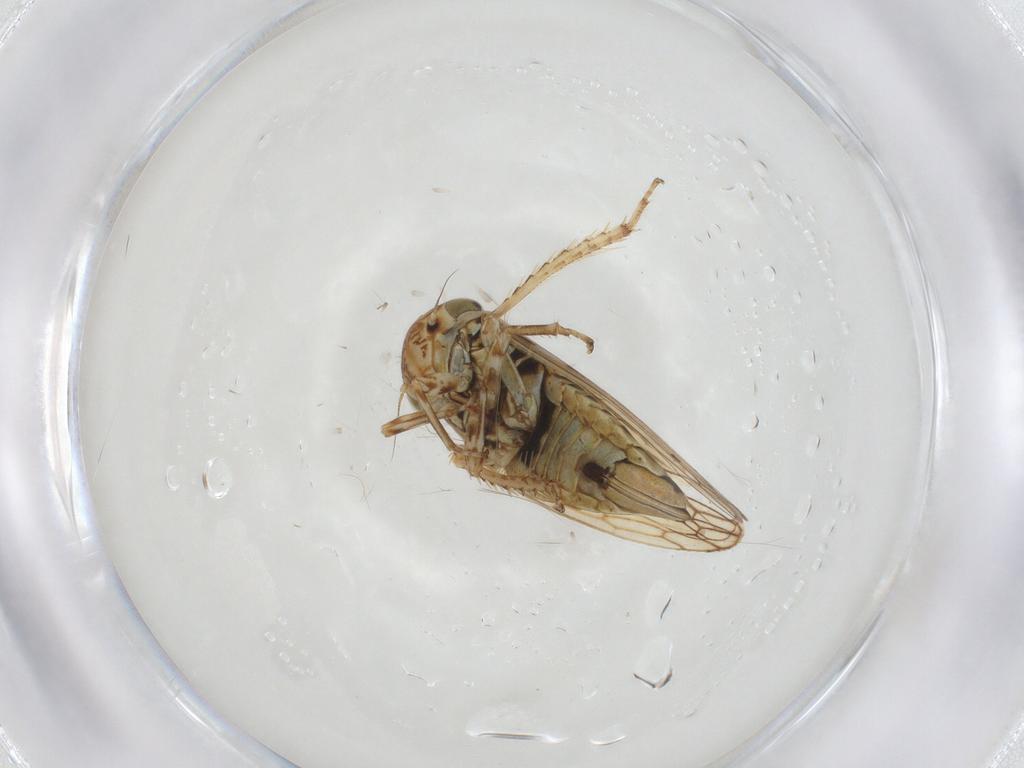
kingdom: Animalia
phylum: Arthropoda
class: Insecta
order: Hemiptera
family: Cicadellidae
